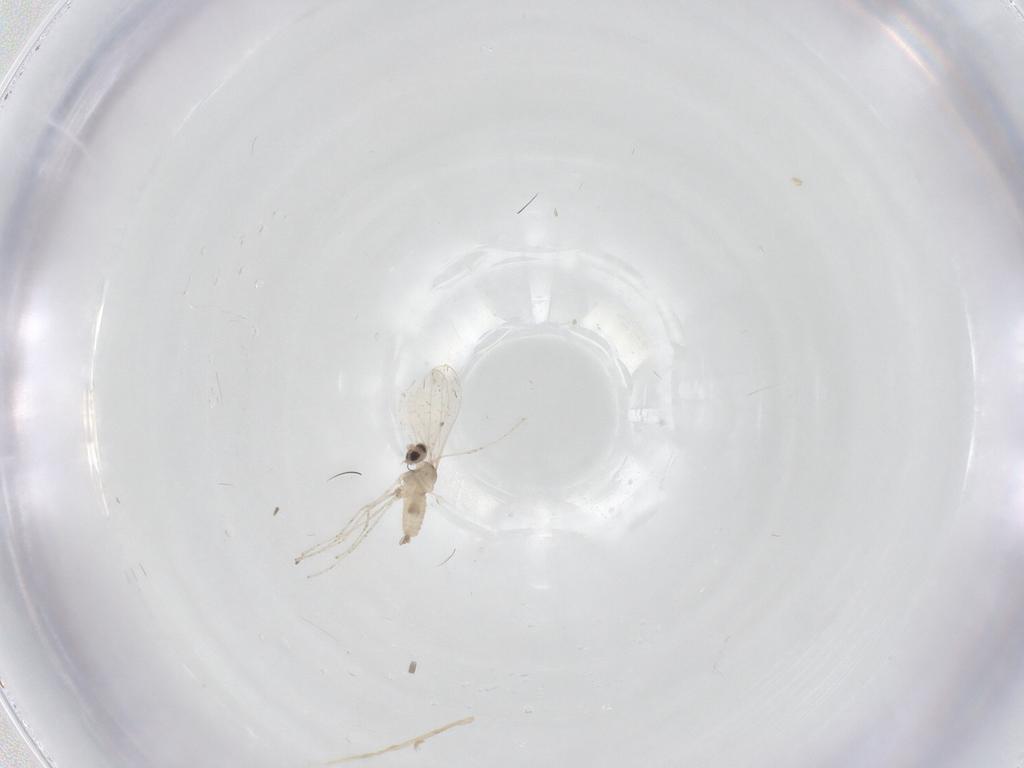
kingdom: Animalia
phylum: Arthropoda
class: Insecta
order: Diptera
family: Chironomidae
